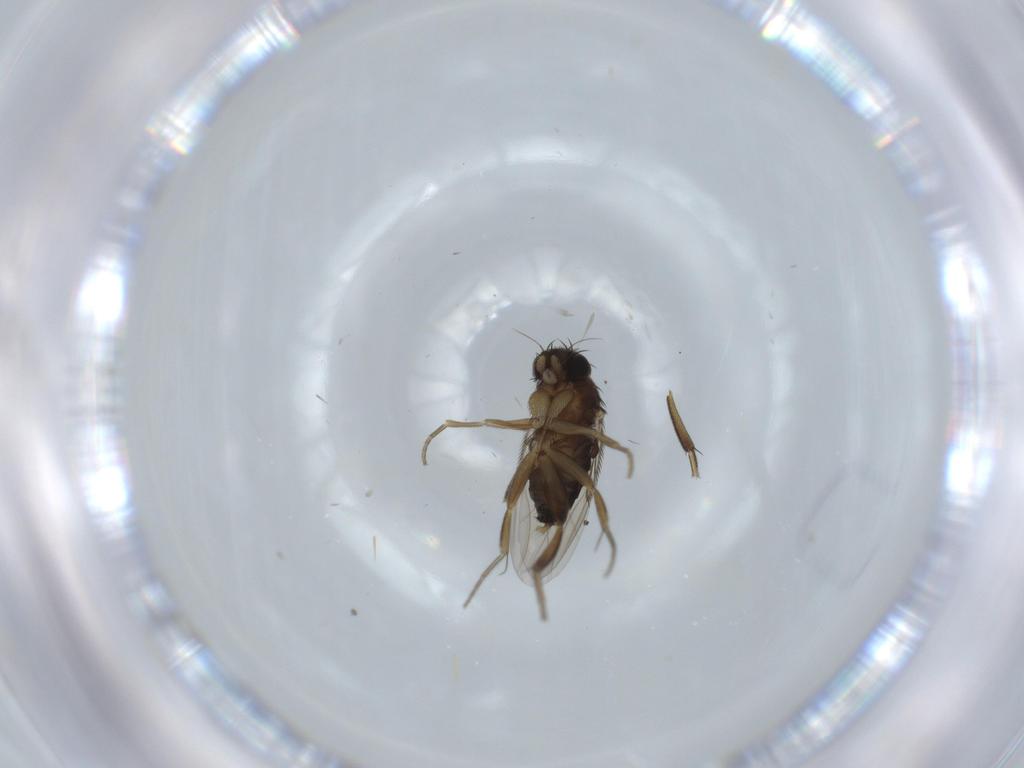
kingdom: Animalia
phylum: Arthropoda
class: Insecta
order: Diptera
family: Phoridae
